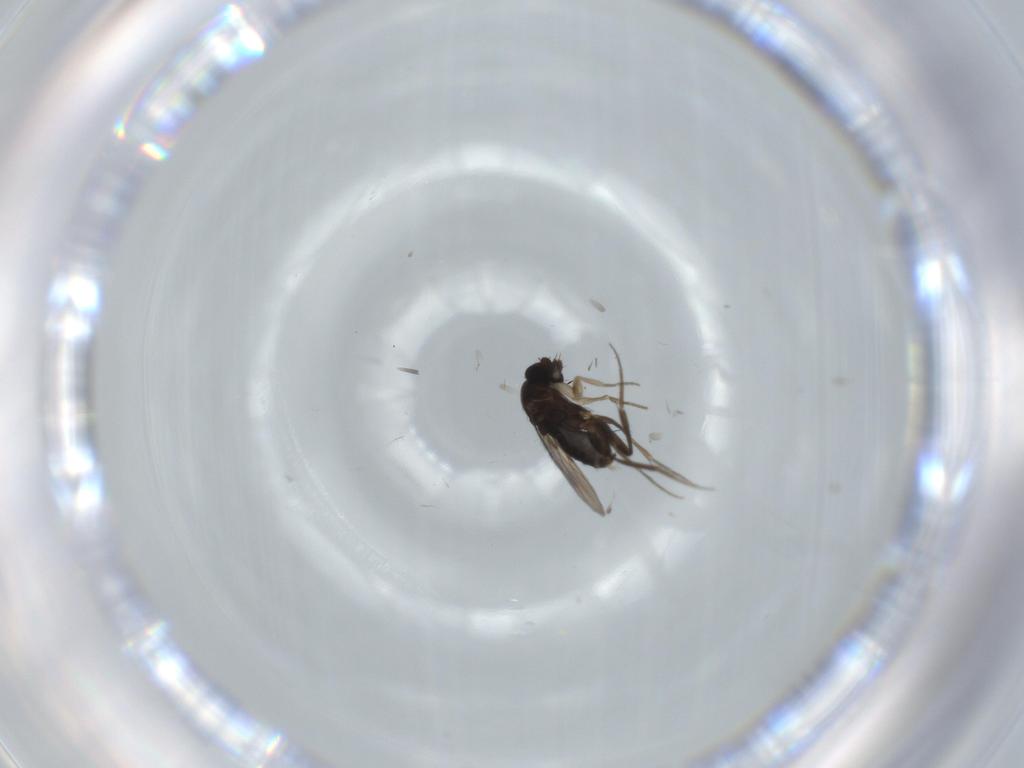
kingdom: Animalia
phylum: Arthropoda
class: Insecta
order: Diptera
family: Phoridae
